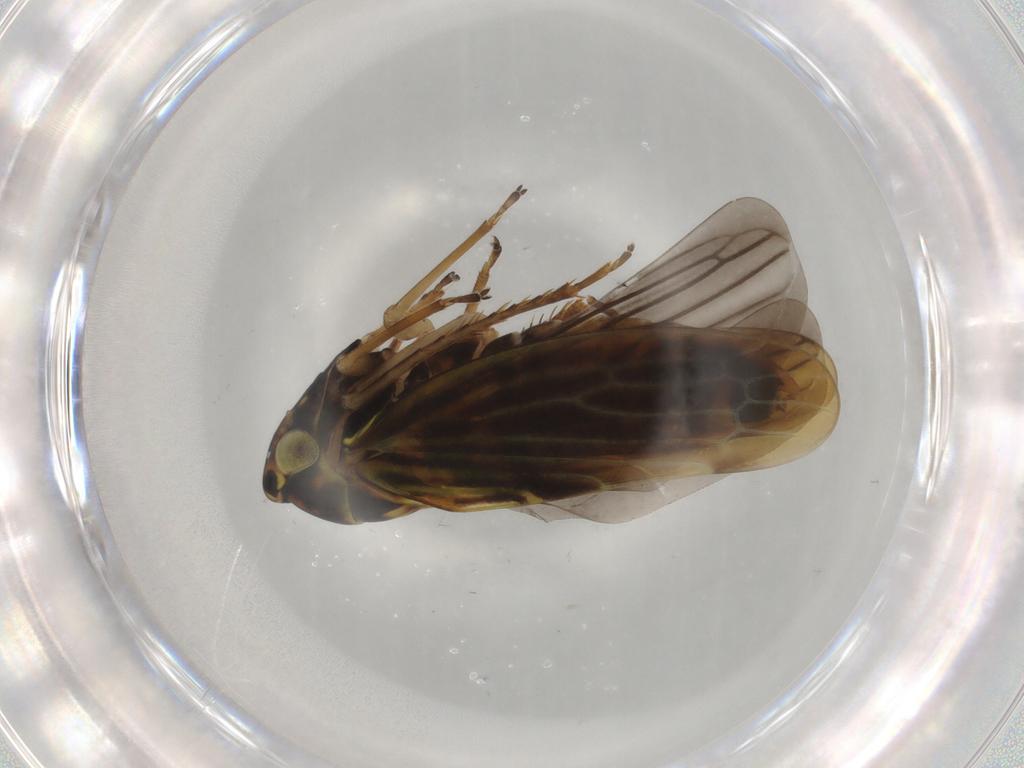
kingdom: Animalia
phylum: Arthropoda
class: Insecta
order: Hemiptera
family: Cicadellidae
